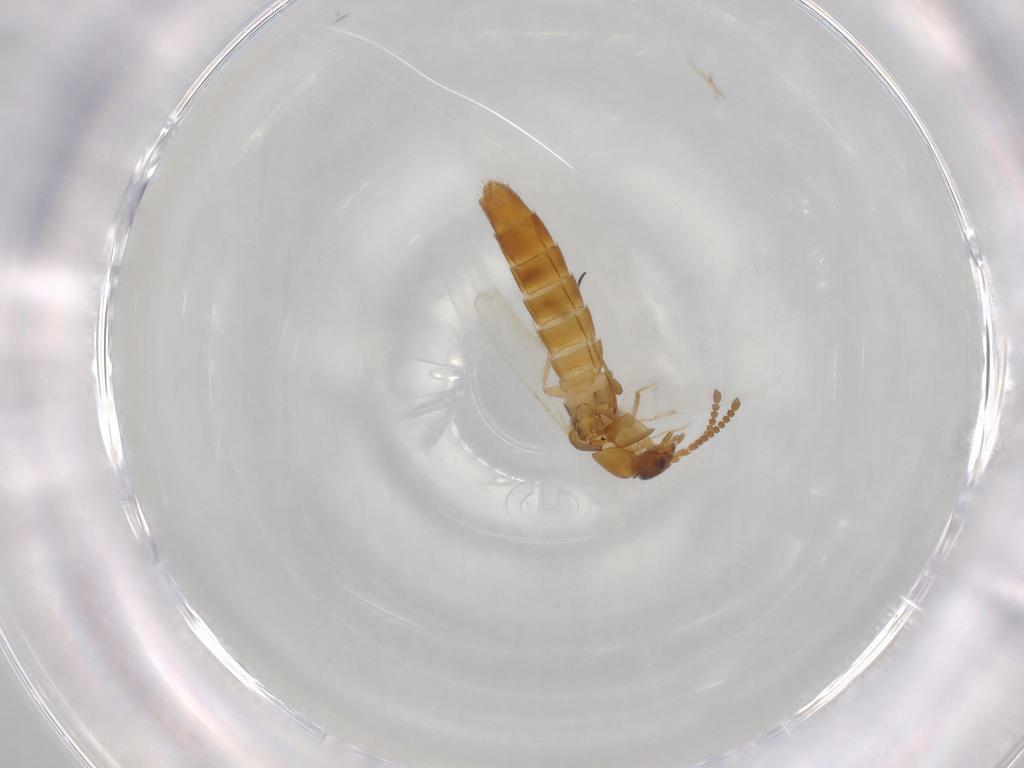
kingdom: Animalia
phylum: Arthropoda
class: Insecta
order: Coleoptera
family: Staphylinidae
